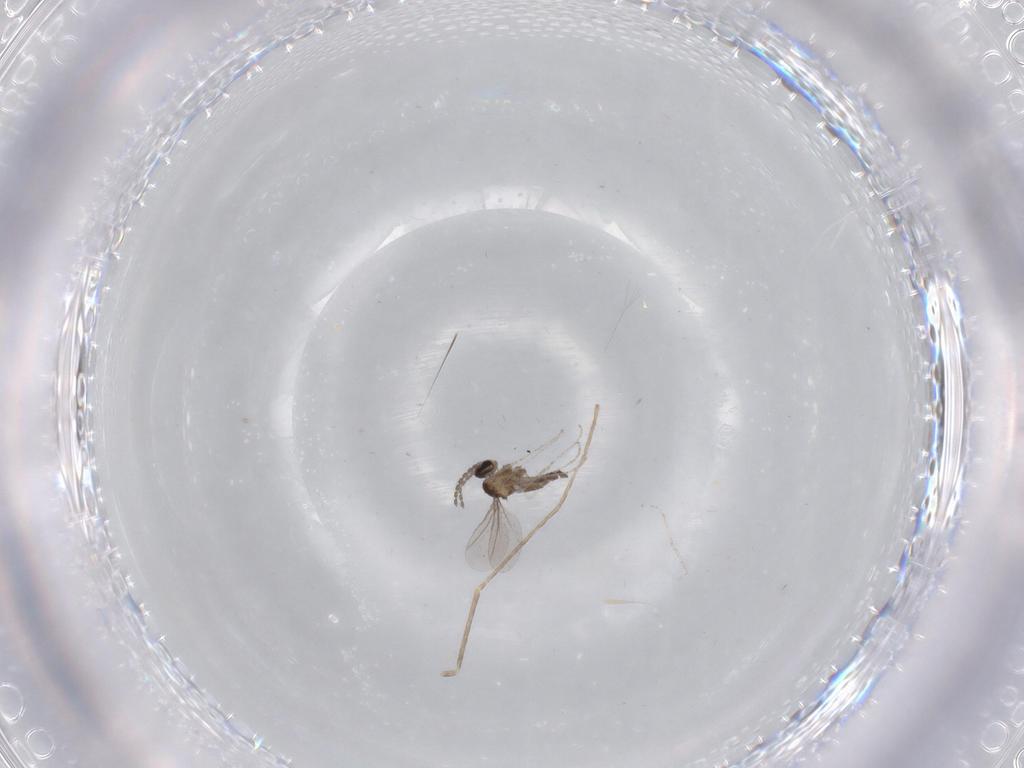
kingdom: Animalia
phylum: Arthropoda
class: Insecta
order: Diptera
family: Cecidomyiidae
